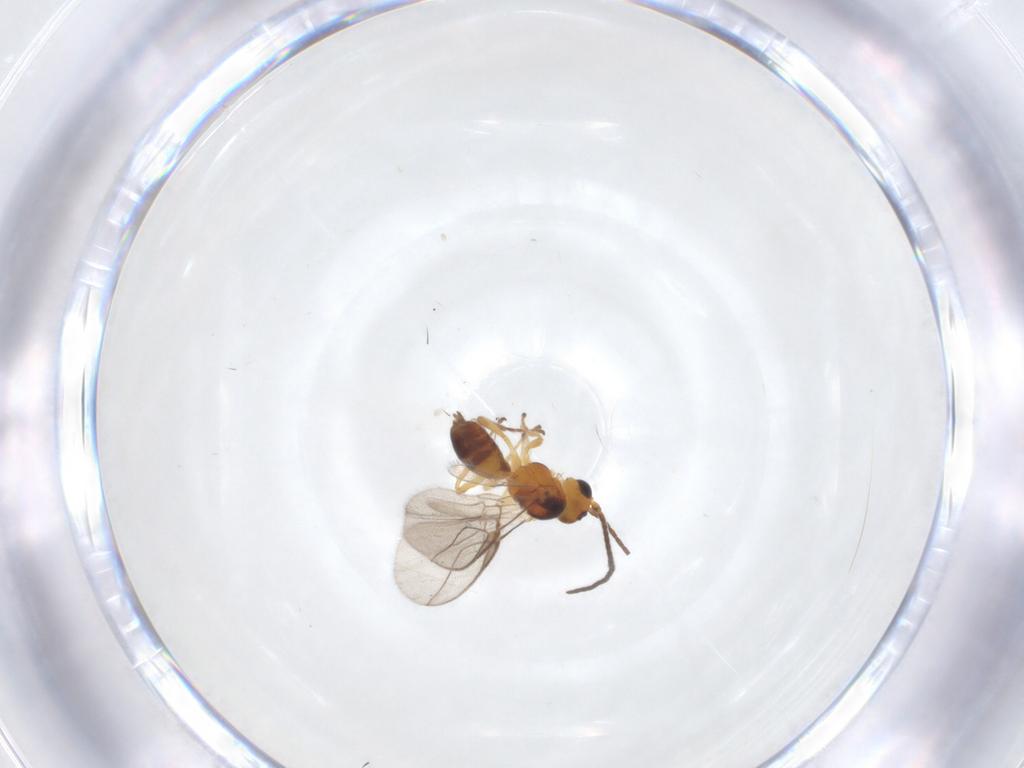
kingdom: Animalia
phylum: Arthropoda
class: Insecta
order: Hymenoptera
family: Braconidae
